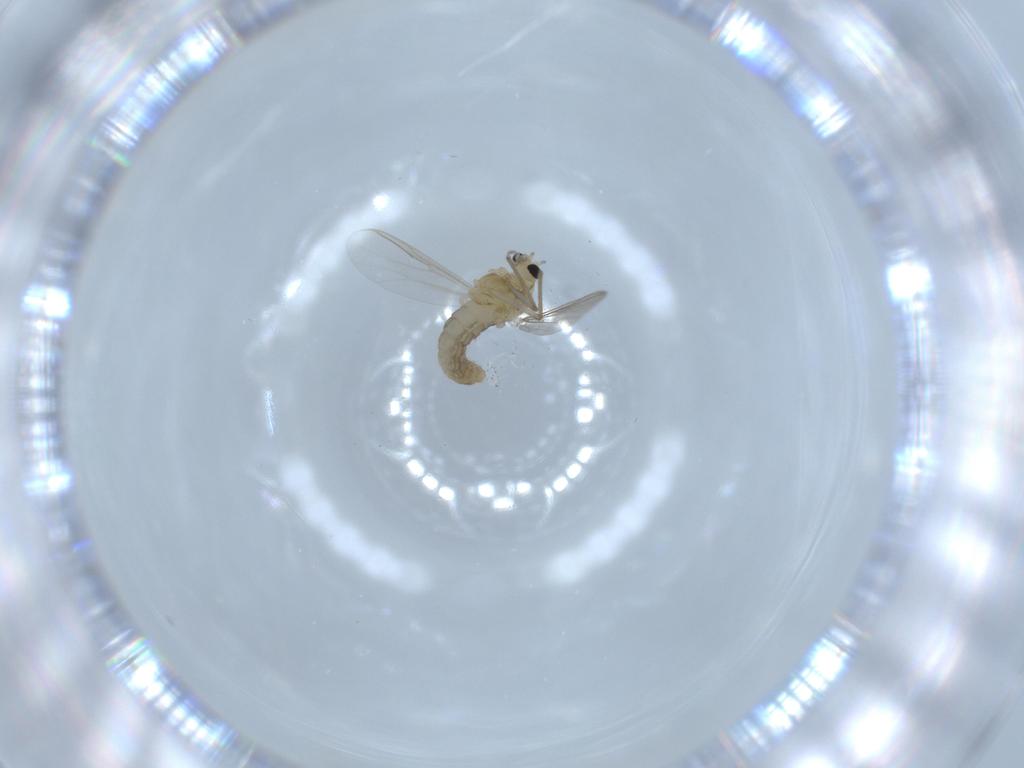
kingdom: Animalia
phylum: Arthropoda
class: Insecta
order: Diptera
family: Chironomidae
